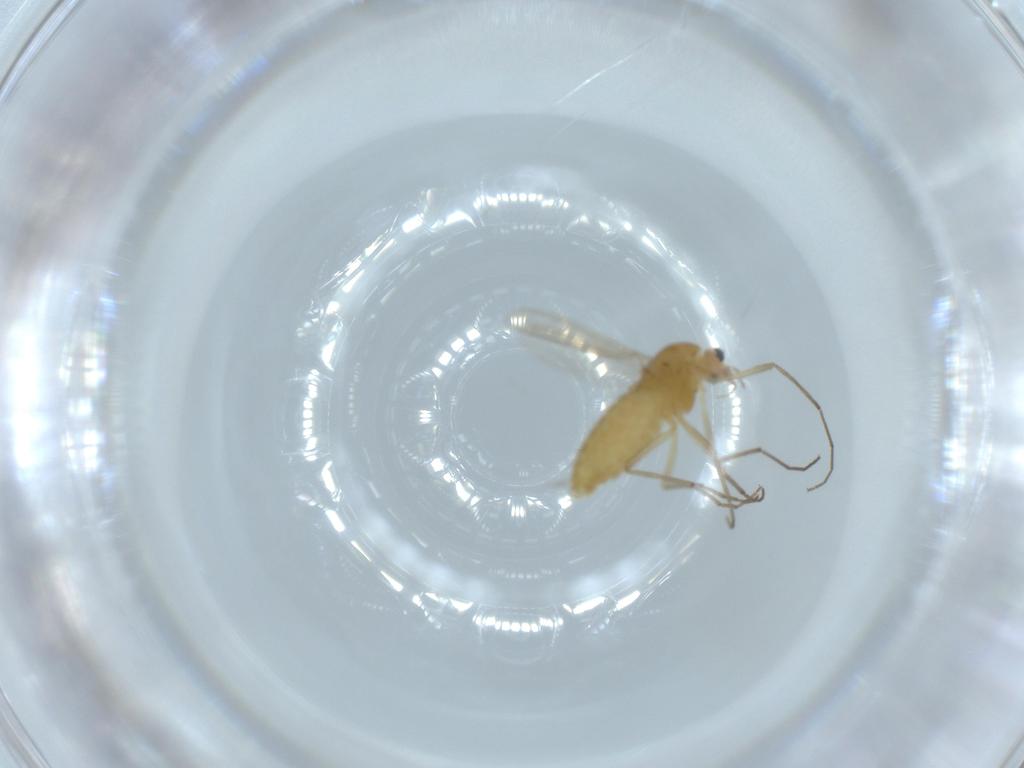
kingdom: Animalia
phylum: Arthropoda
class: Insecta
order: Diptera
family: Chironomidae
